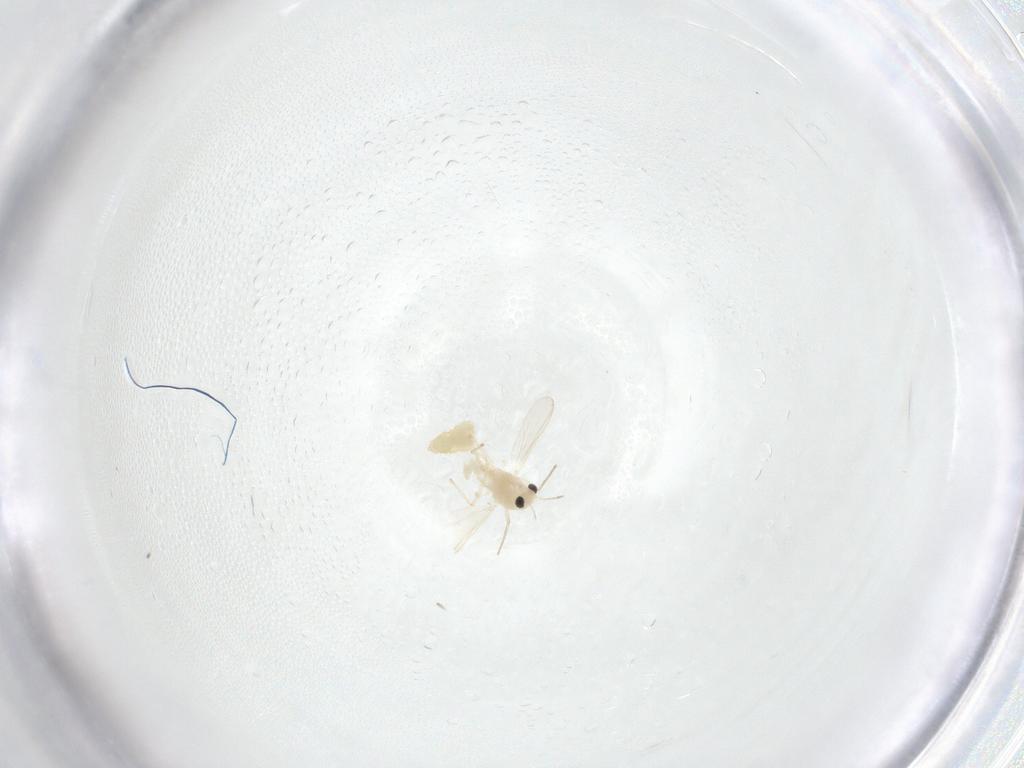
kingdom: Animalia
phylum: Arthropoda
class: Insecta
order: Diptera
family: Chironomidae
